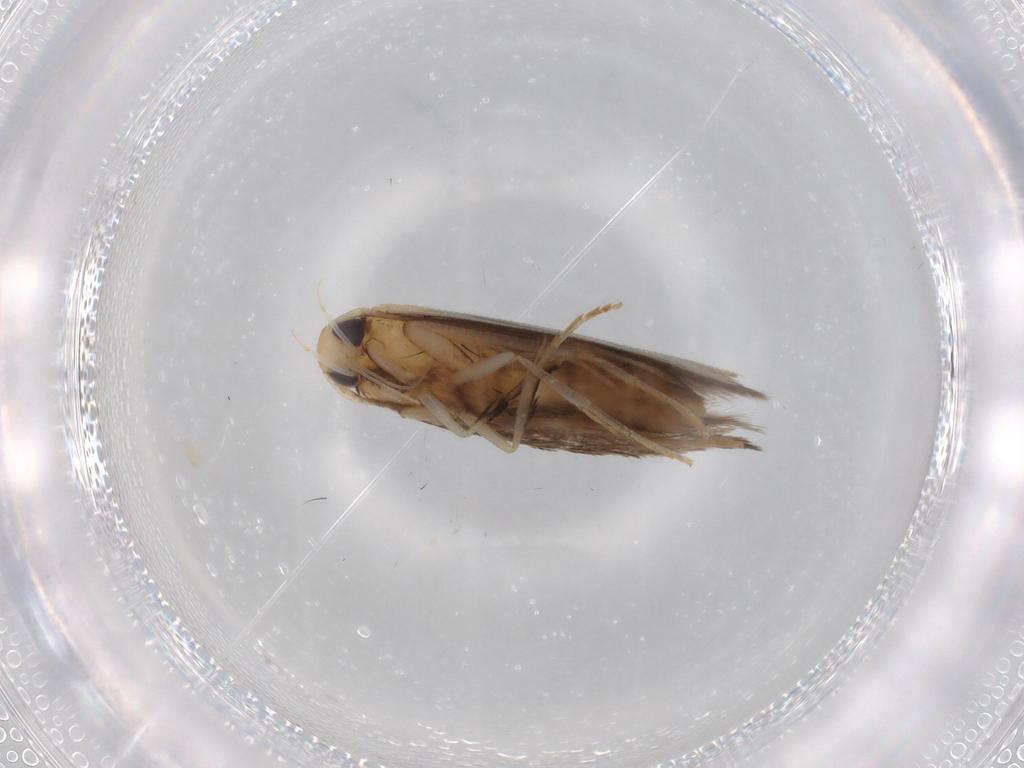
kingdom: Animalia
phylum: Arthropoda
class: Insecta
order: Lepidoptera
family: Cosmopterigidae
